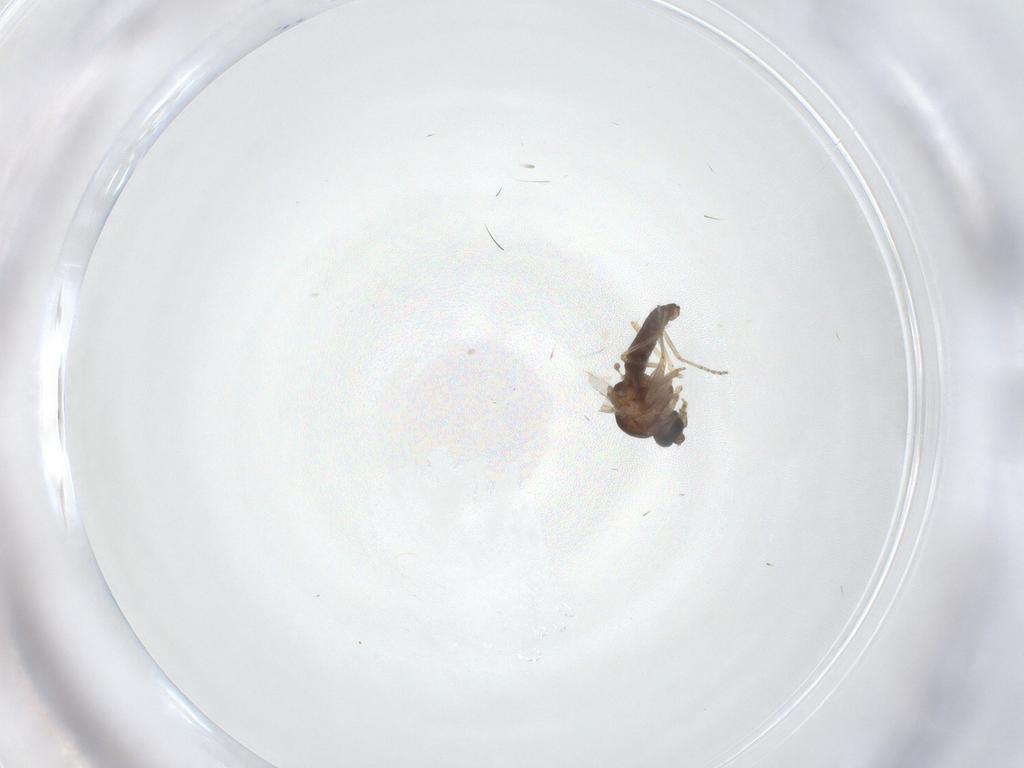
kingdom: Animalia
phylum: Arthropoda
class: Insecta
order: Diptera
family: Ceratopogonidae
